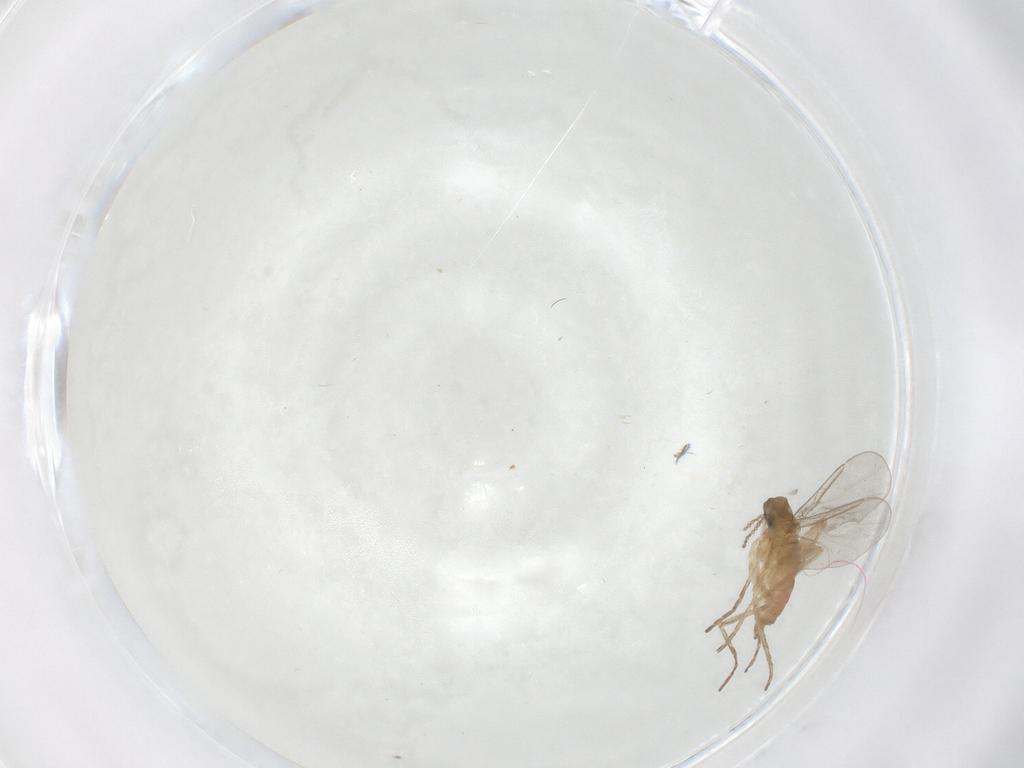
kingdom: Animalia
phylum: Arthropoda
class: Insecta
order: Diptera
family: Cecidomyiidae
